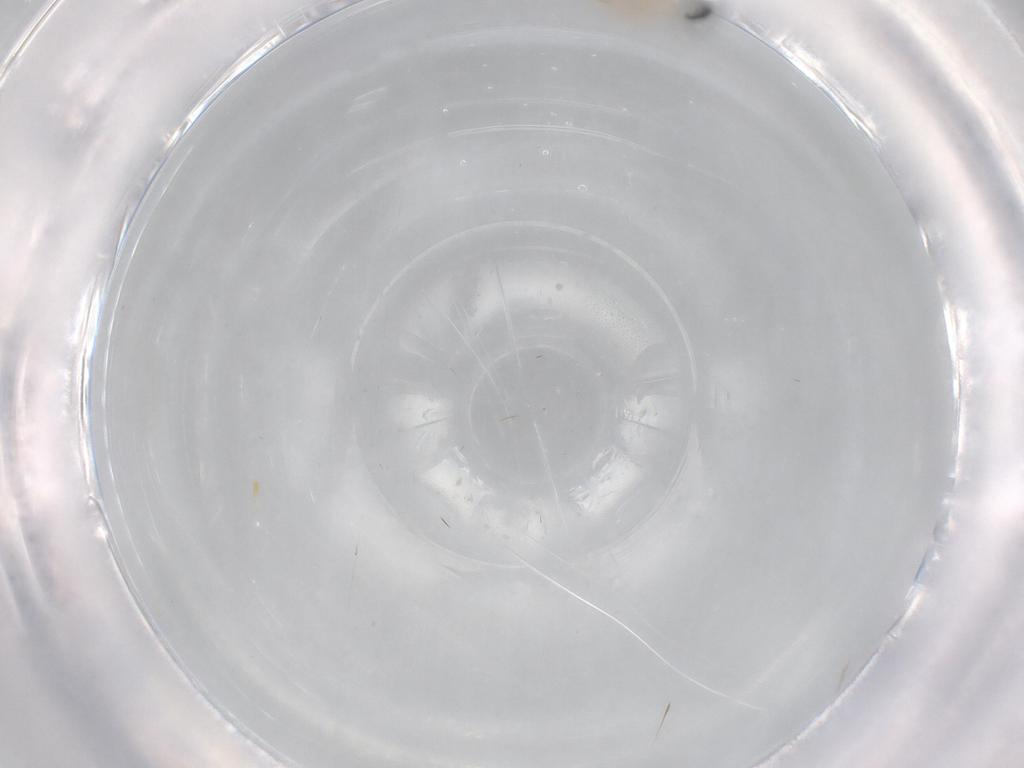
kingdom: Animalia
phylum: Arthropoda
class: Insecta
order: Coleoptera
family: Scarabaeidae
